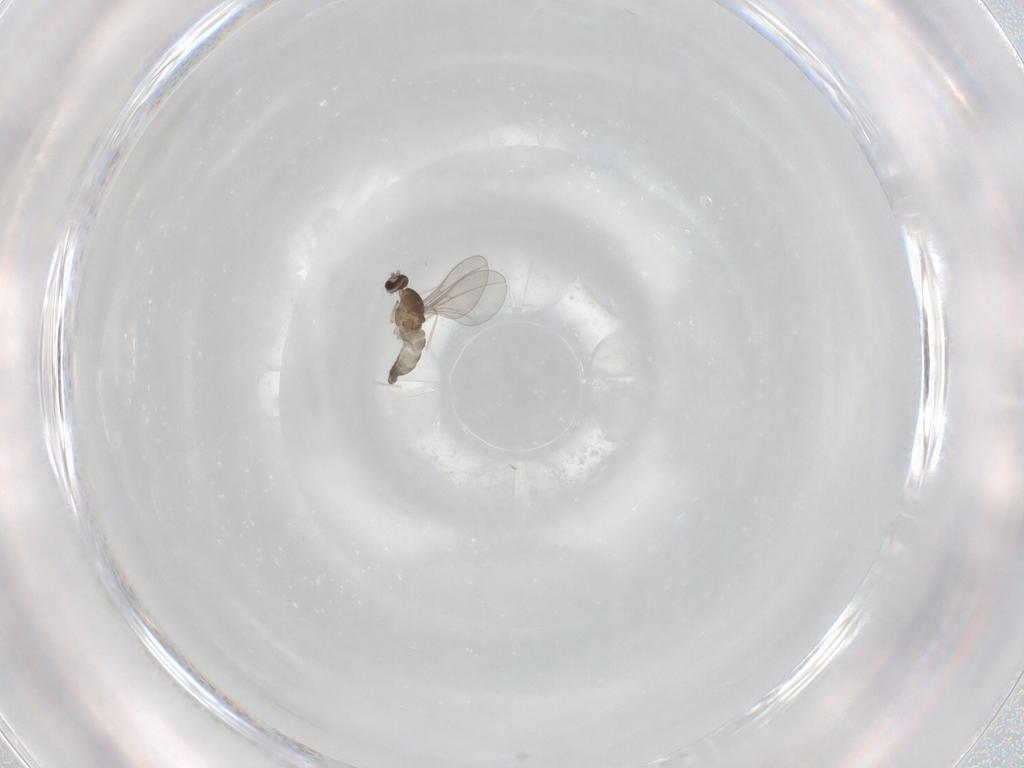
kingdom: Animalia
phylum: Arthropoda
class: Insecta
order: Diptera
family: Cecidomyiidae
